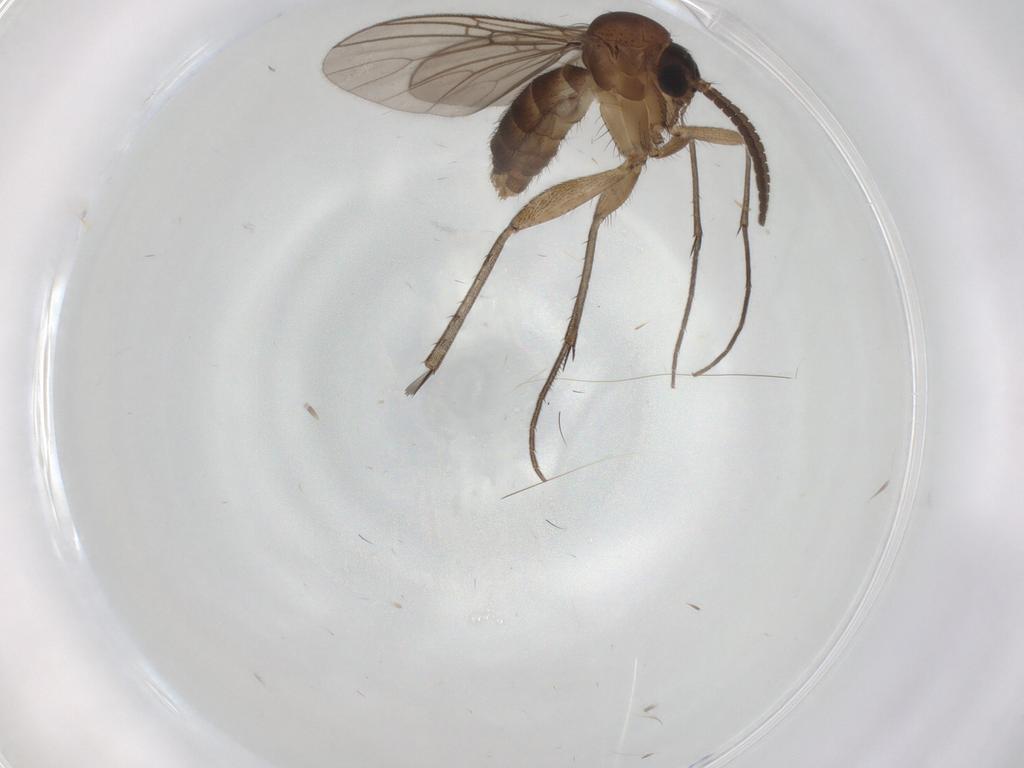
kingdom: Animalia
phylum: Arthropoda
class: Insecta
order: Diptera
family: Mycetophilidae
